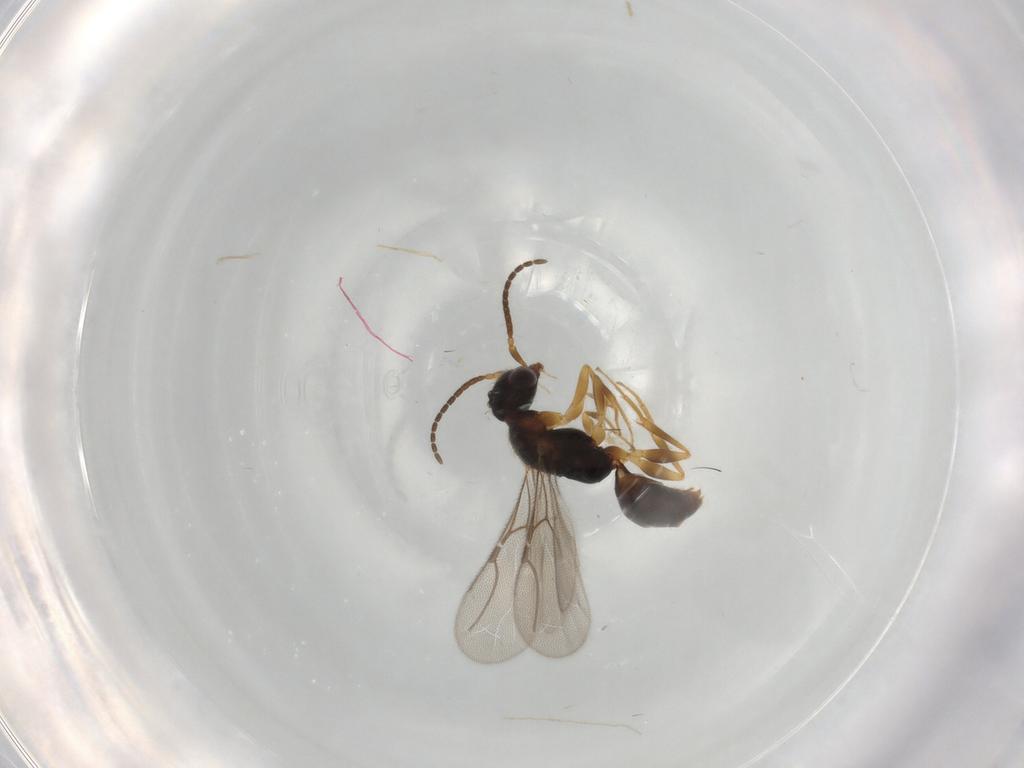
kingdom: Animalia
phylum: Arthropoda
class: Insecta
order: Hymenoptera
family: Bethylidae
